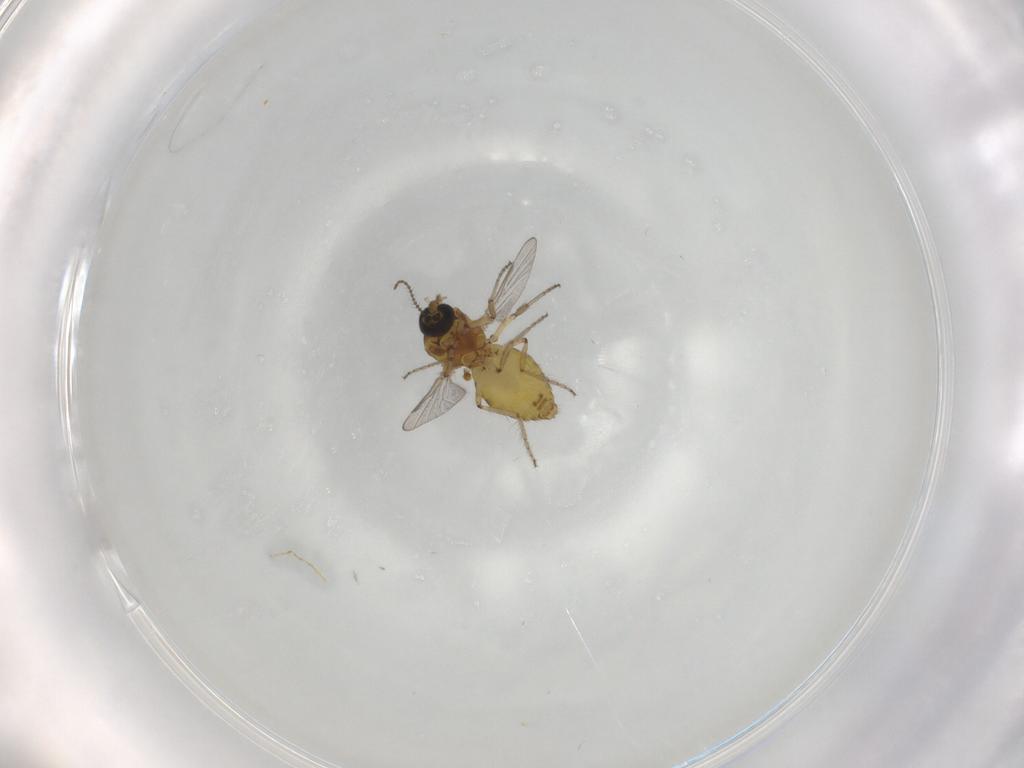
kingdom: Animalia
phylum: Arthropoda
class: Insecta
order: Diptera
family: Ceratopogonidae
